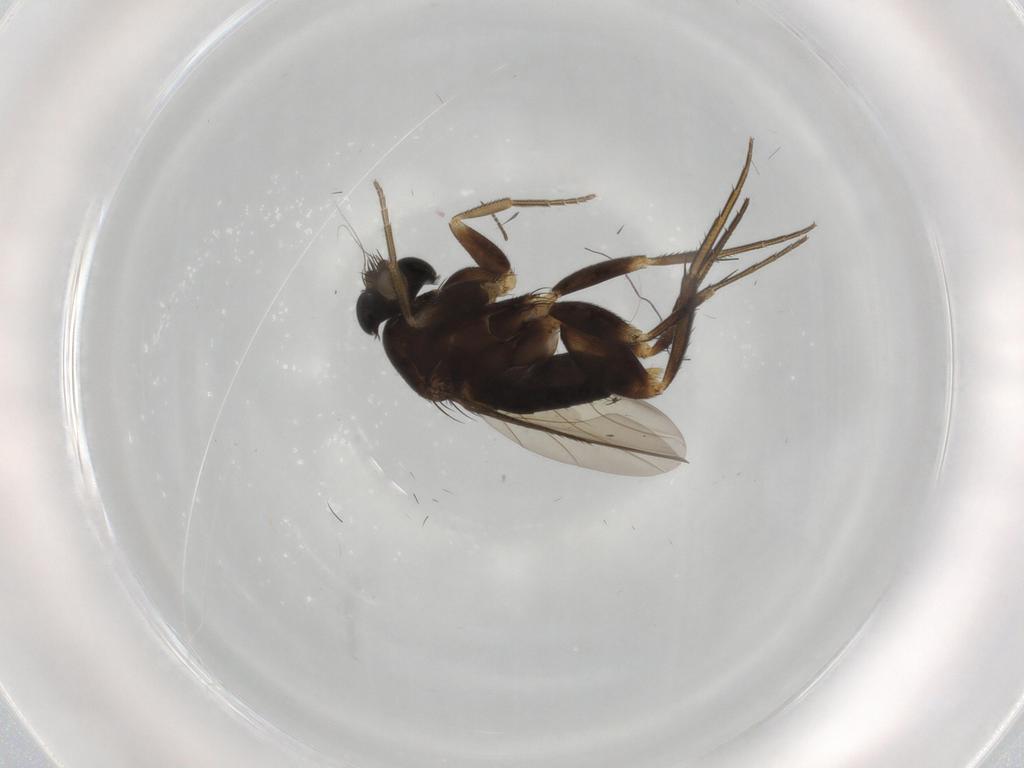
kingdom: Animalia
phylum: Arthropoda
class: Insecta
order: Diptera
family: Phoridae
